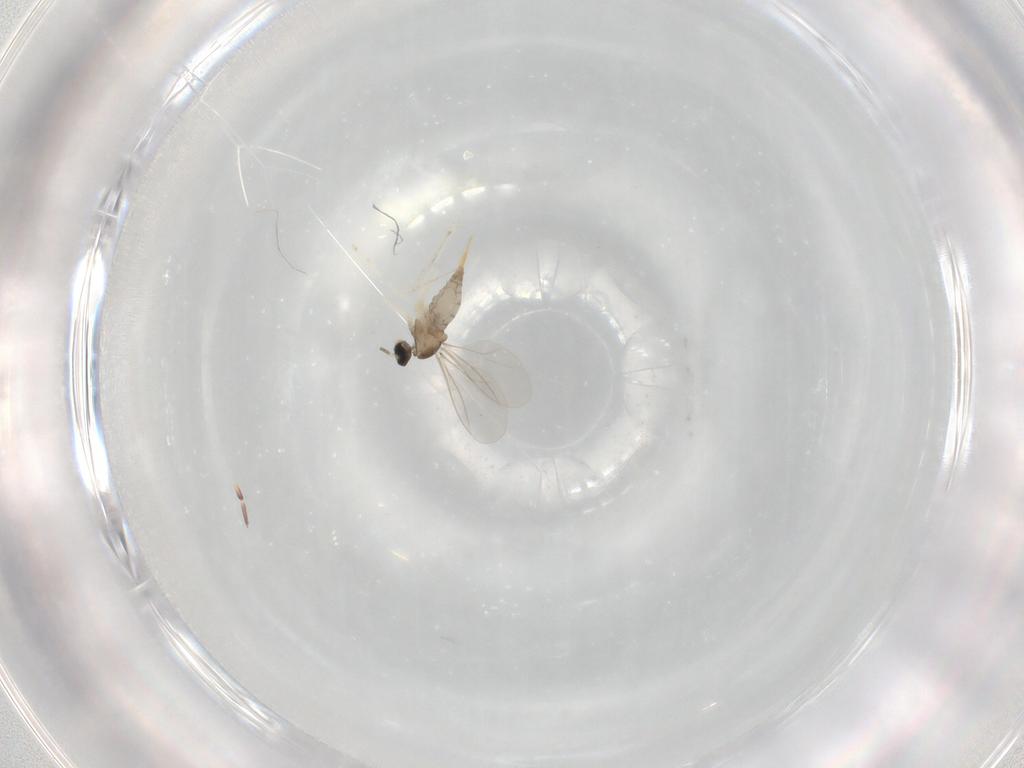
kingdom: Animalia
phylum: Arthropoda
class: Insecta
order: Diptera
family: Cecidomyiidae
